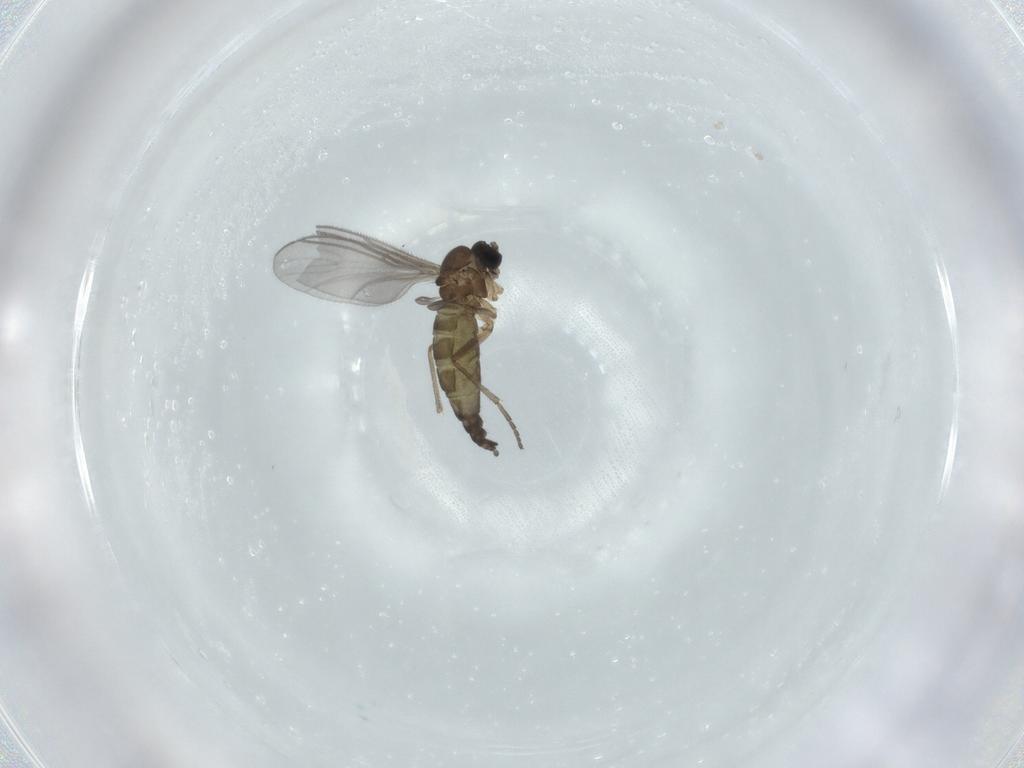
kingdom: Animalia
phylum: Arthropoda
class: Insecta
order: Diptera
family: Sciaridae
